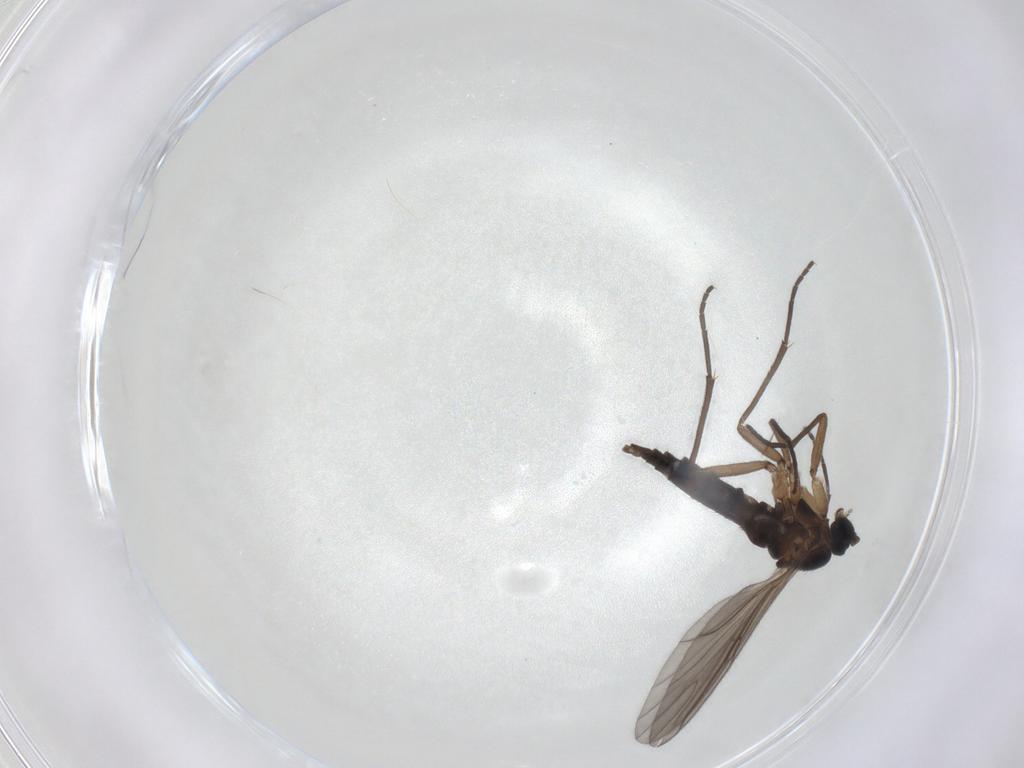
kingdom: Animalia
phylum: Arthropoda
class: Insecta
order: Diptera
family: Sciaridae
